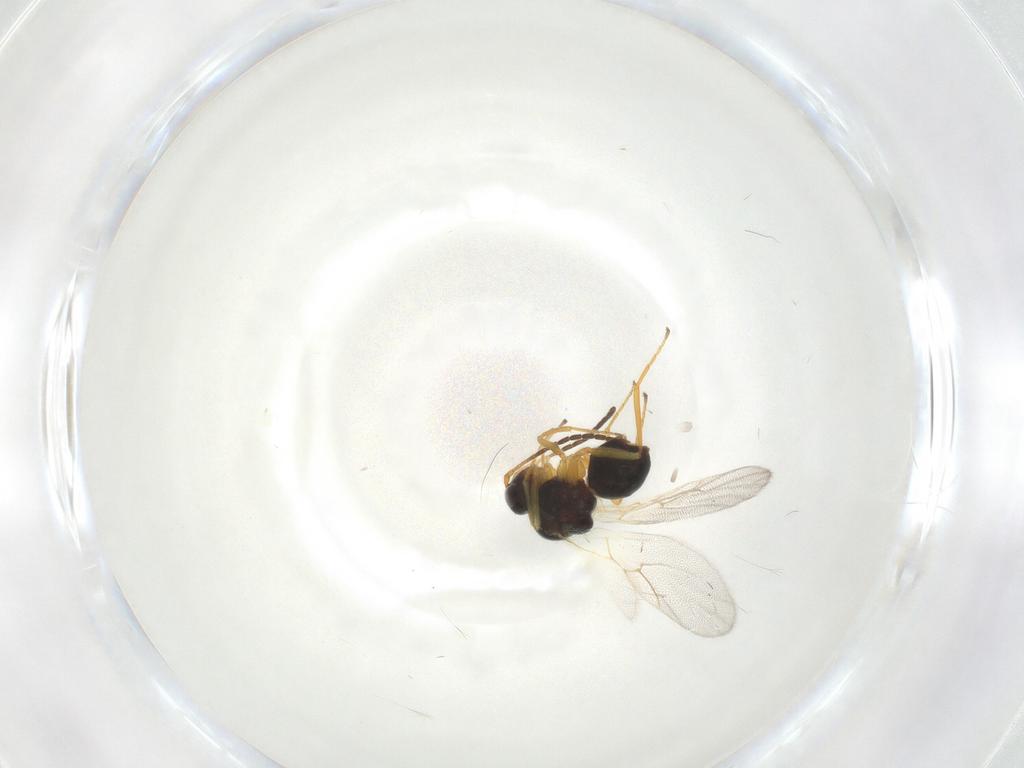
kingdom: Animalia
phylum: Arthropoda
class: Insecta
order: Hymenoptera
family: Figitidae
